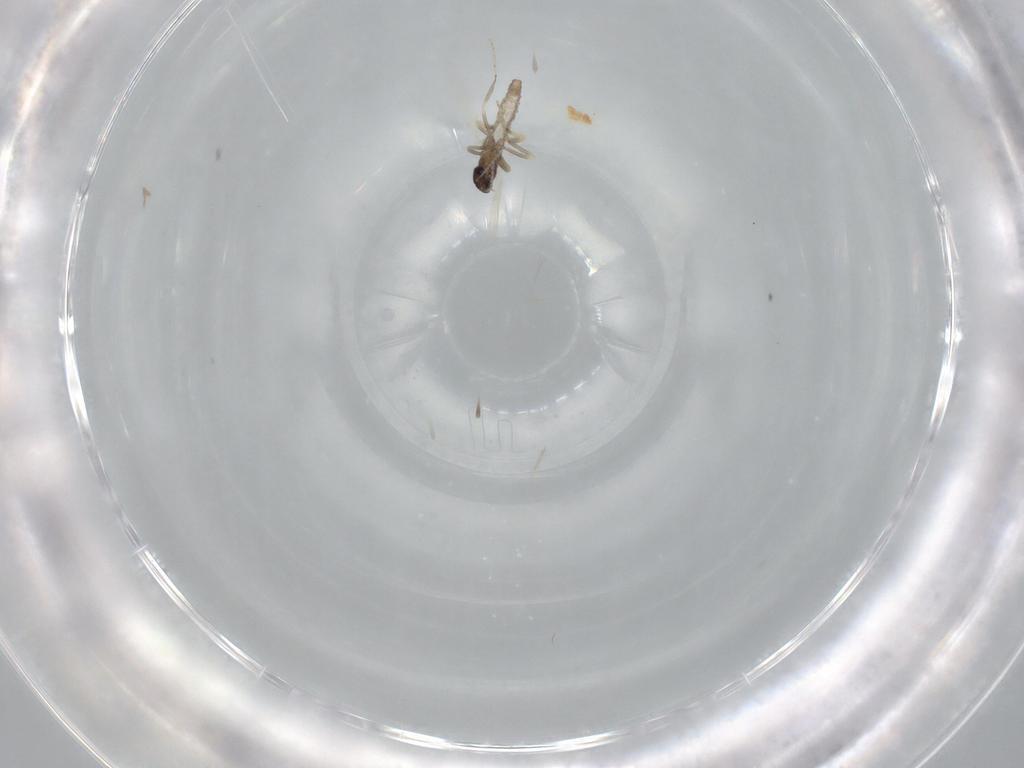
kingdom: Animalia
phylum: Arthropoda
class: Insecta
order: Diptera
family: Ceratopogonidae
